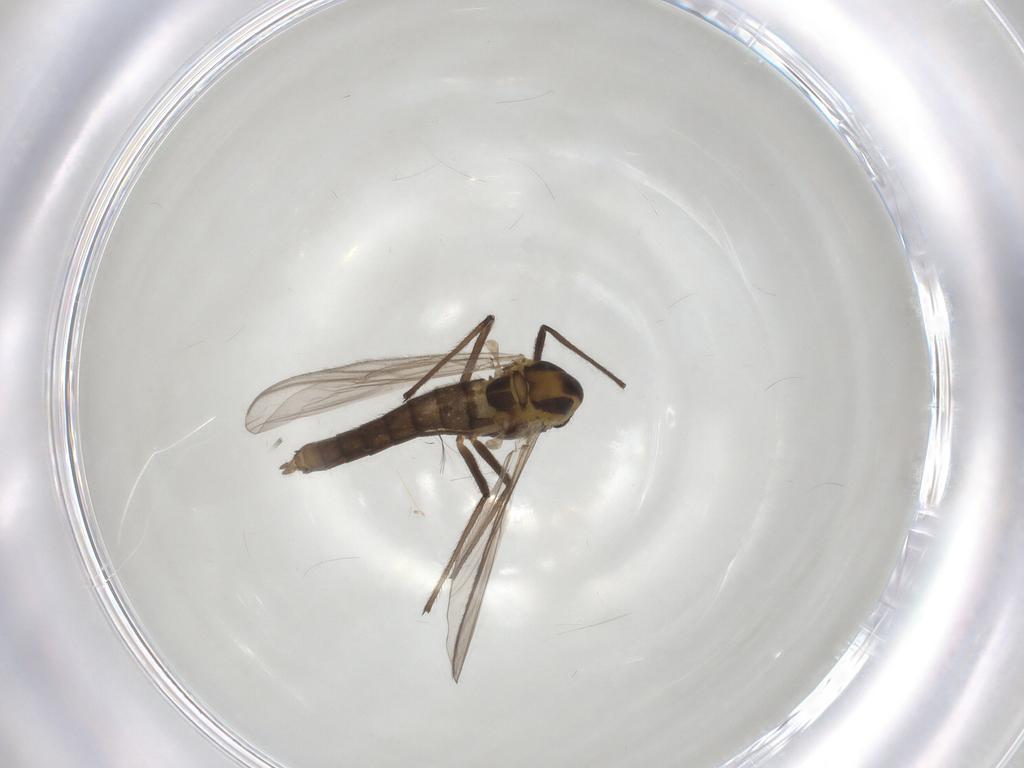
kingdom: Animalia
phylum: Arthropoda
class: Insecta
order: Diptera
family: Chironomidae
